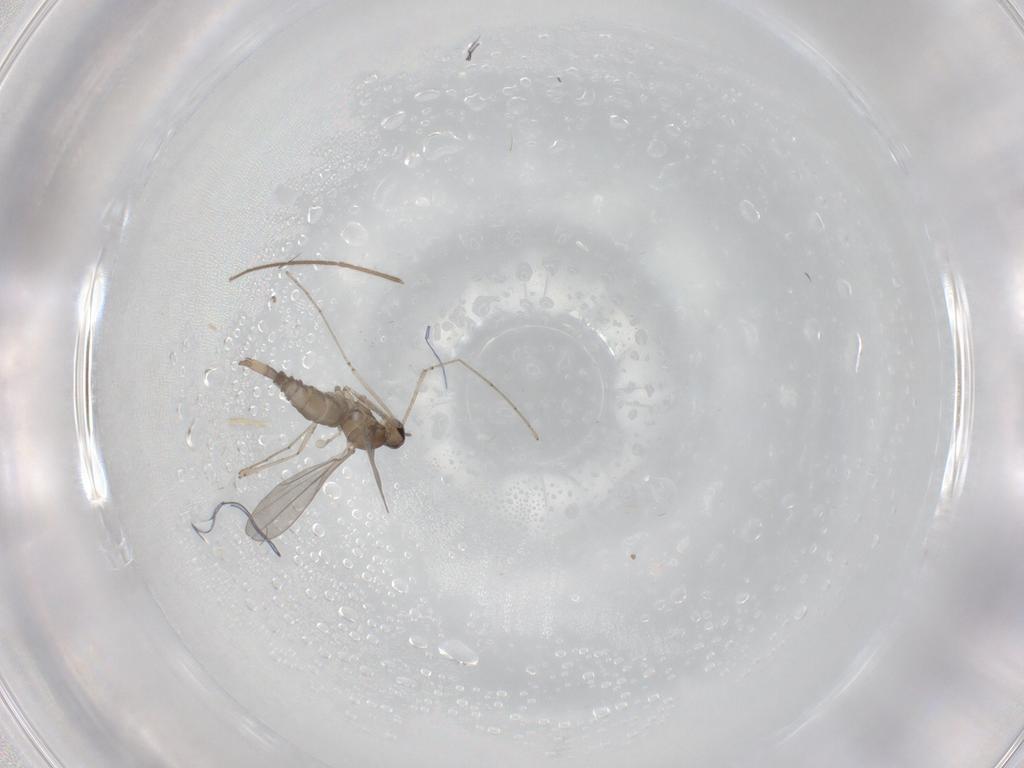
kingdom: Animalia
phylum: Arthropoda
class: Insecta
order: Diptera
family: Cecidomyiidae
